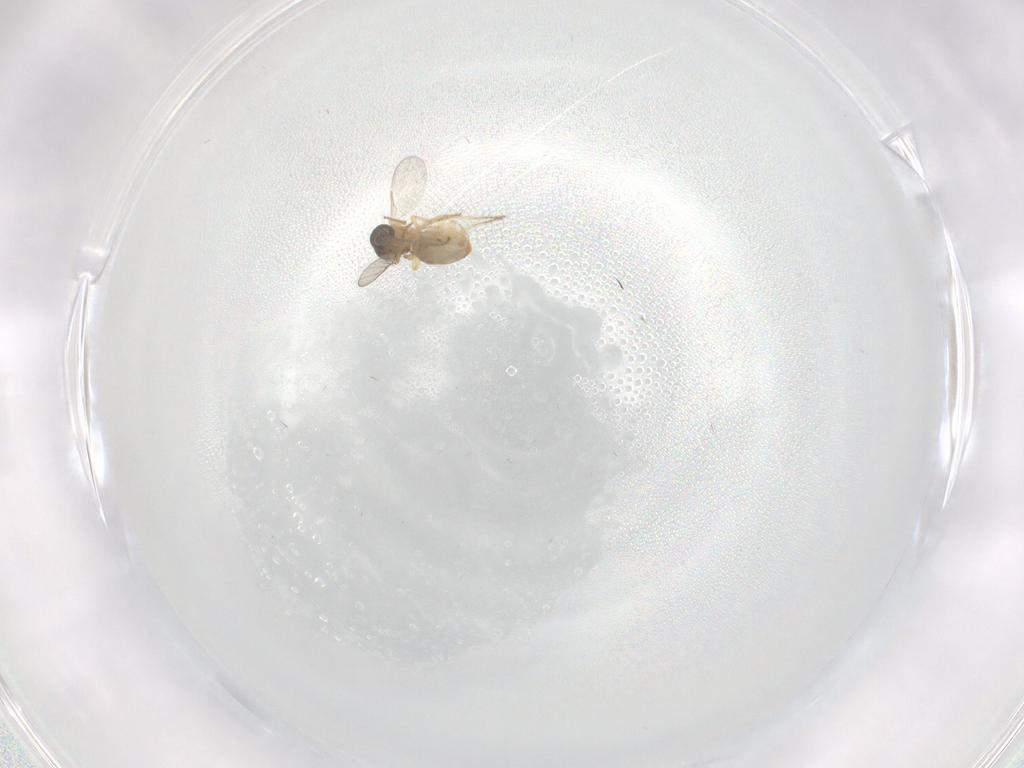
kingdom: Animalia
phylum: Arthropoda
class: Insecta
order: Diptera
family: Ceratopogonidae
